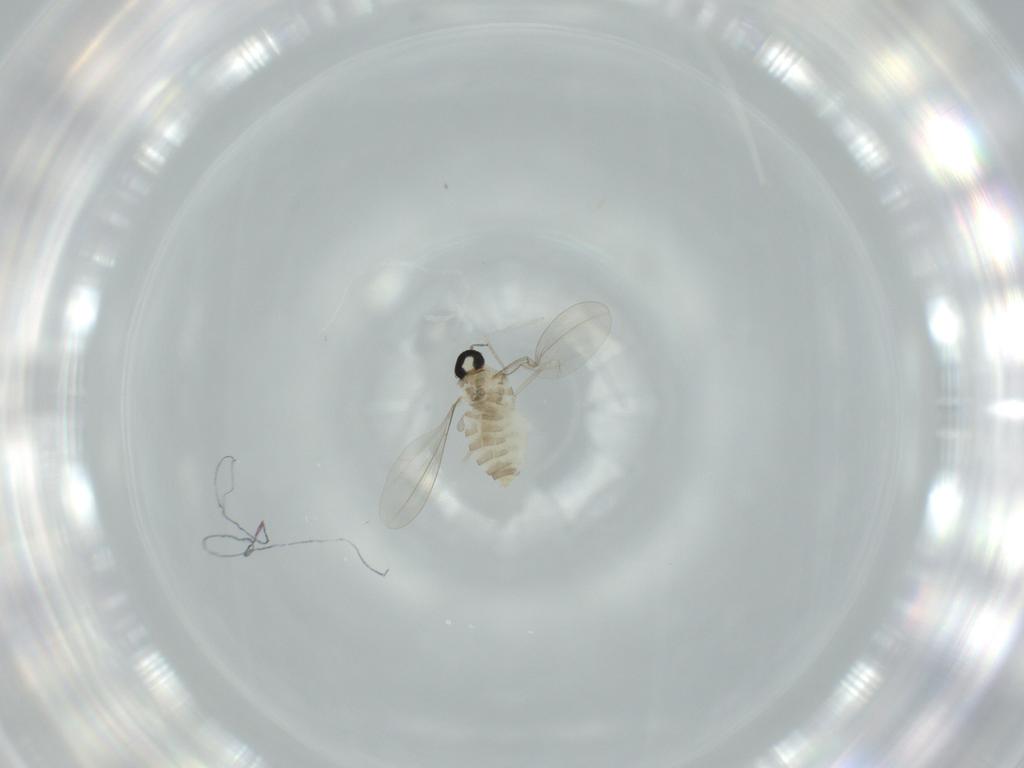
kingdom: Animalia
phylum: Arthropoda
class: Insecta
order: Diptera
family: Cecidomyiidae
